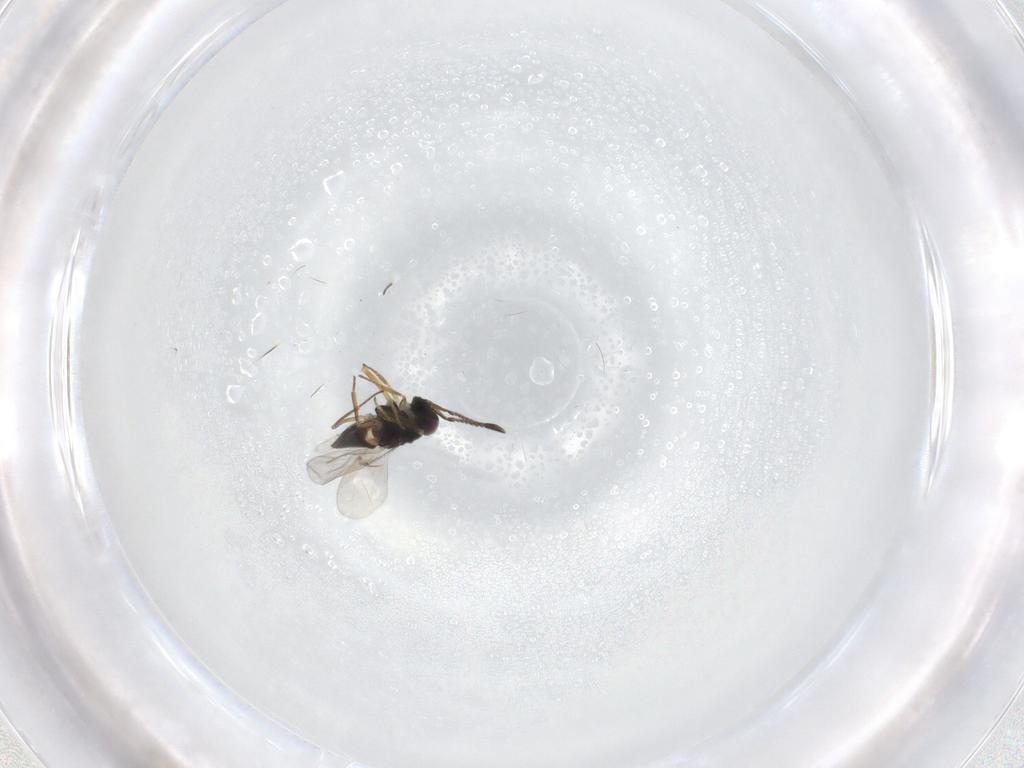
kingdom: Animalia
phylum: Arthropoda
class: Insecta
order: Hymenoptera
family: Encyrtidae
